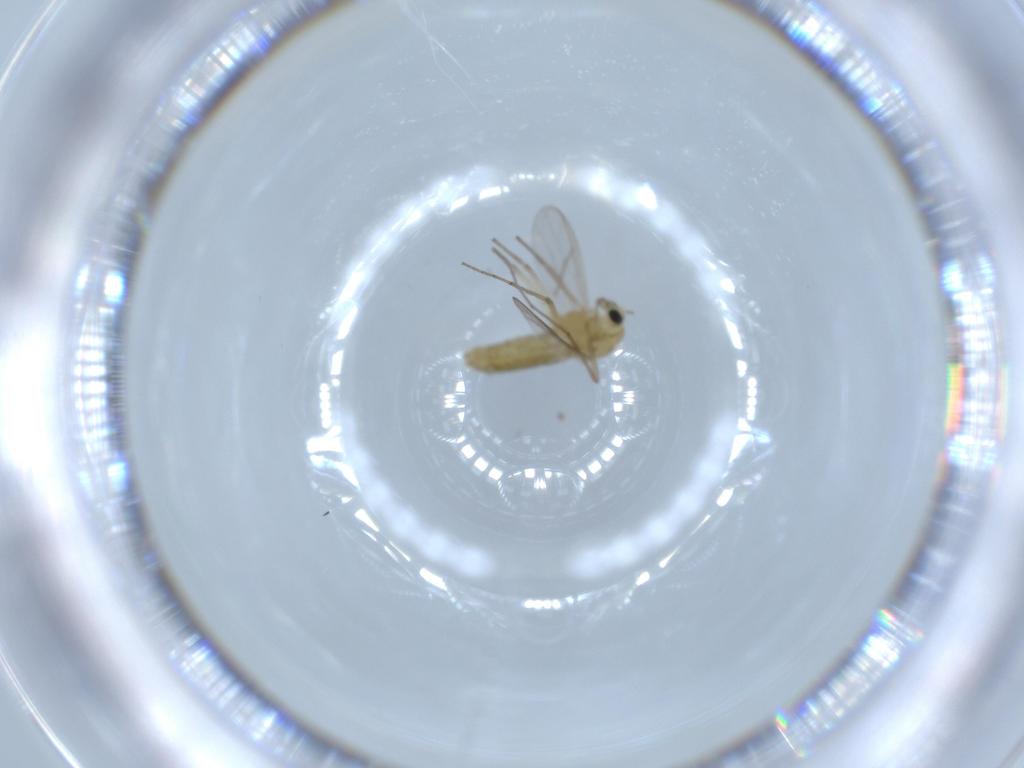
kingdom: Animalia
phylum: Arthropoda
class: Insecta
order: Diptera
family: Chironomidae
